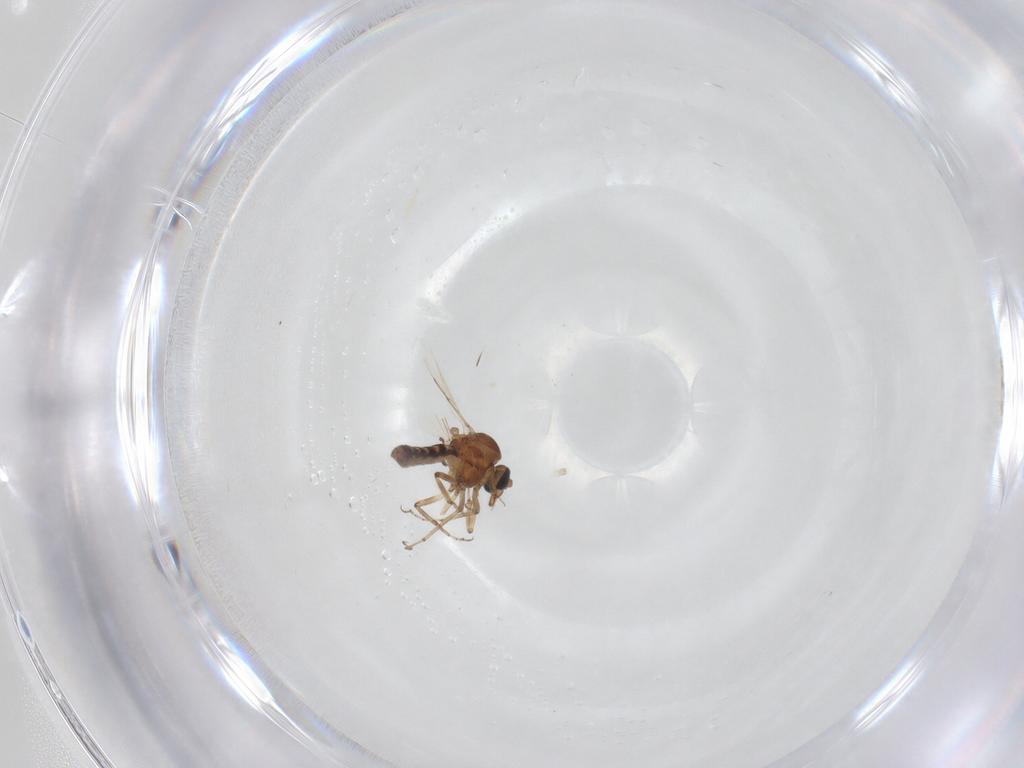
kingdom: Animalia
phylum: Arthropoda
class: Insecta
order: Diptera
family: Ceratopogonidae
